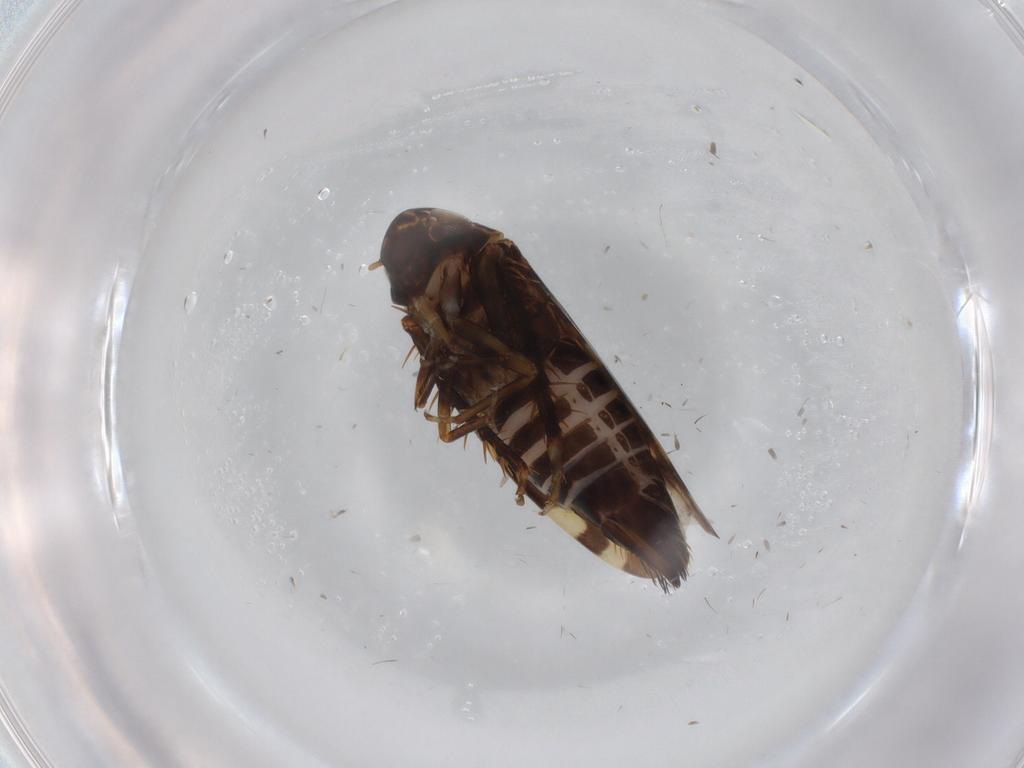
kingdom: Animalia
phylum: Arthropoda
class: Insecta
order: Hemiptera
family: Cicadellidae
